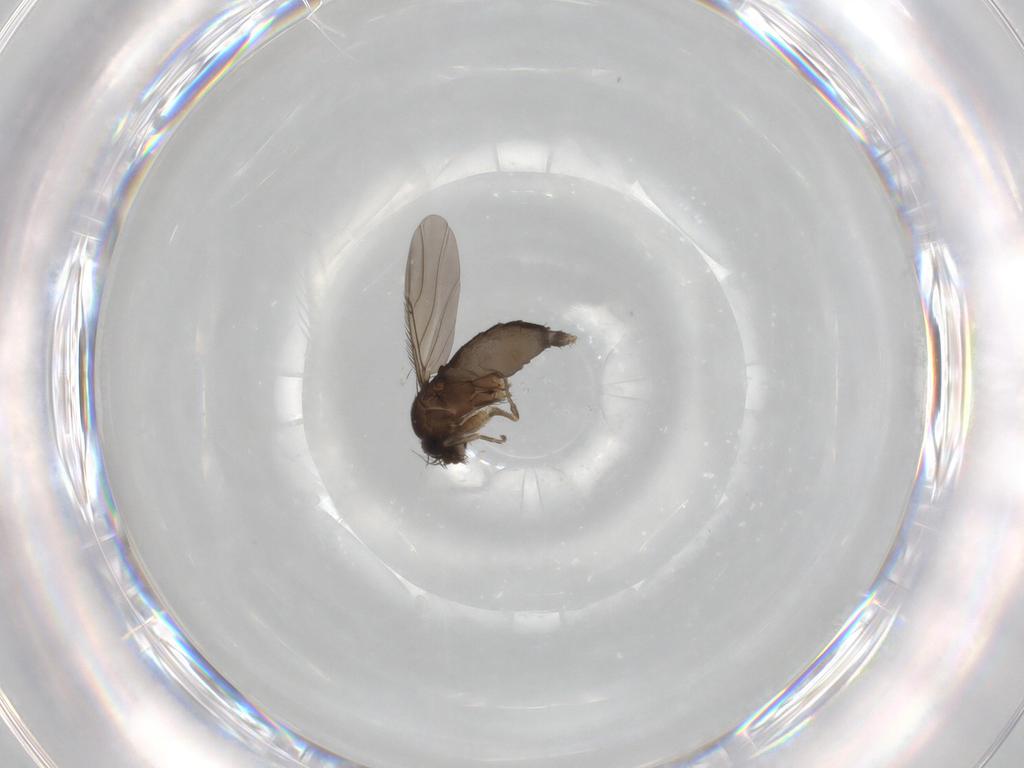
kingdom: Animalia
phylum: Arthropoda
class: Insecta
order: Diptera
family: Phoridae
